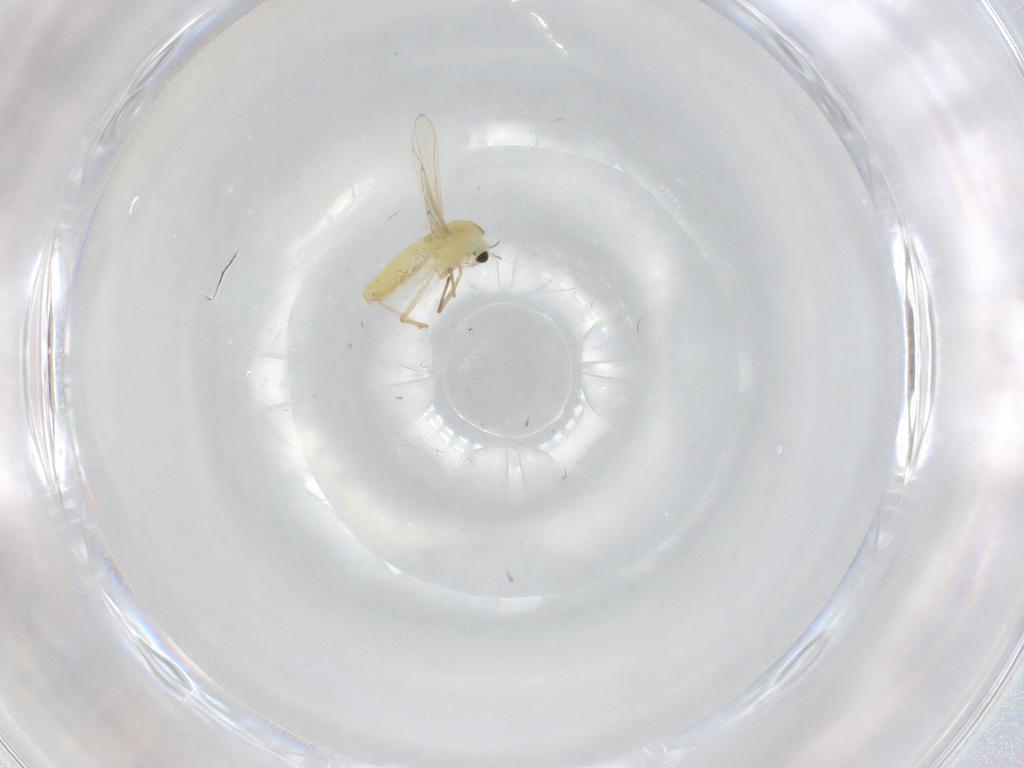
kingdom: Animalia
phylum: Arthropoda
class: Insecta
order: Diptera
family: Chironomidae
